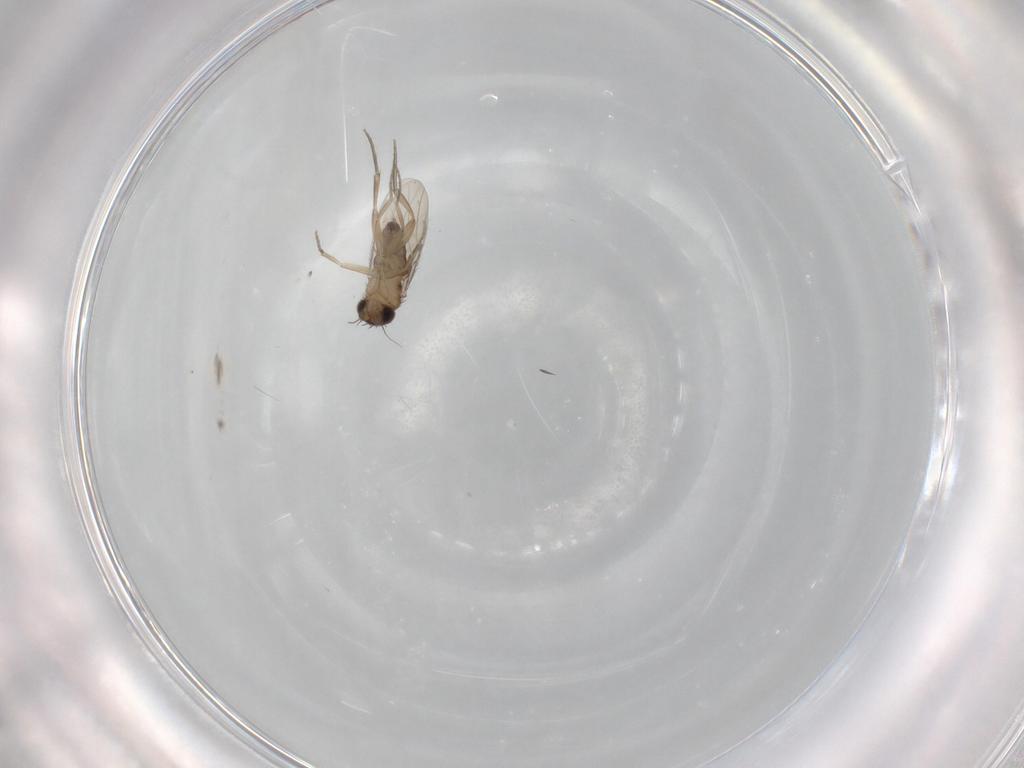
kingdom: Animalia
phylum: Arthropoda
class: Insecta
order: Diptera
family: Phoridae
